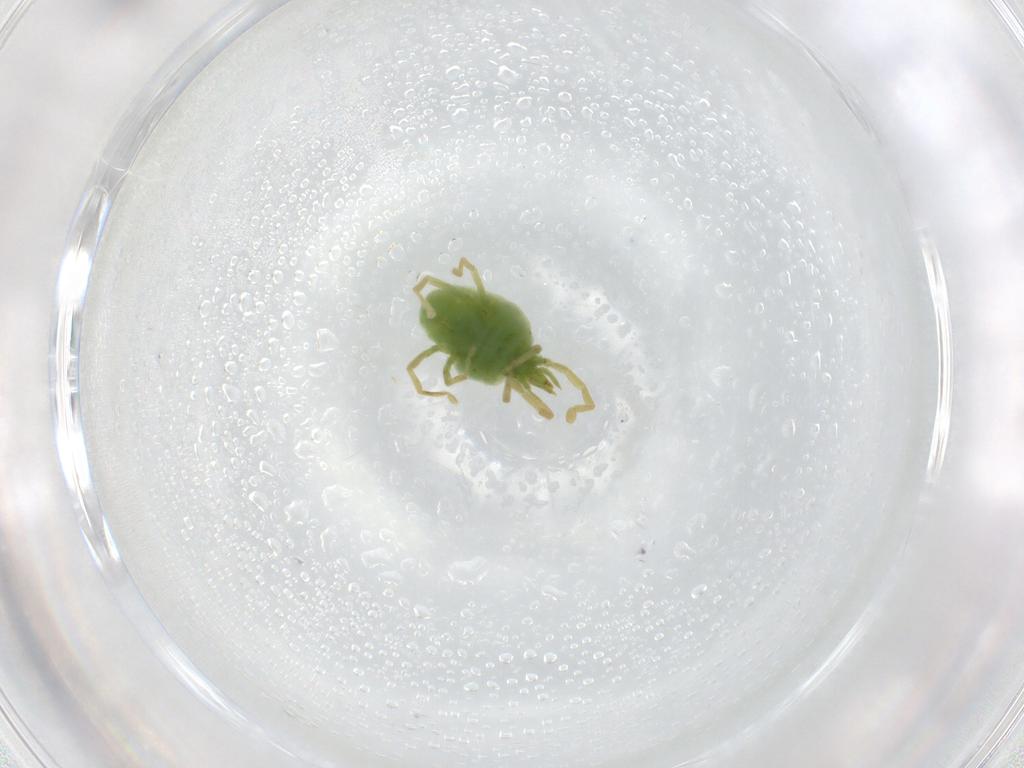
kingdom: Animalia
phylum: Arthropoda
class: Arachnida
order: Trombidiformes
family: Erythraeidae
